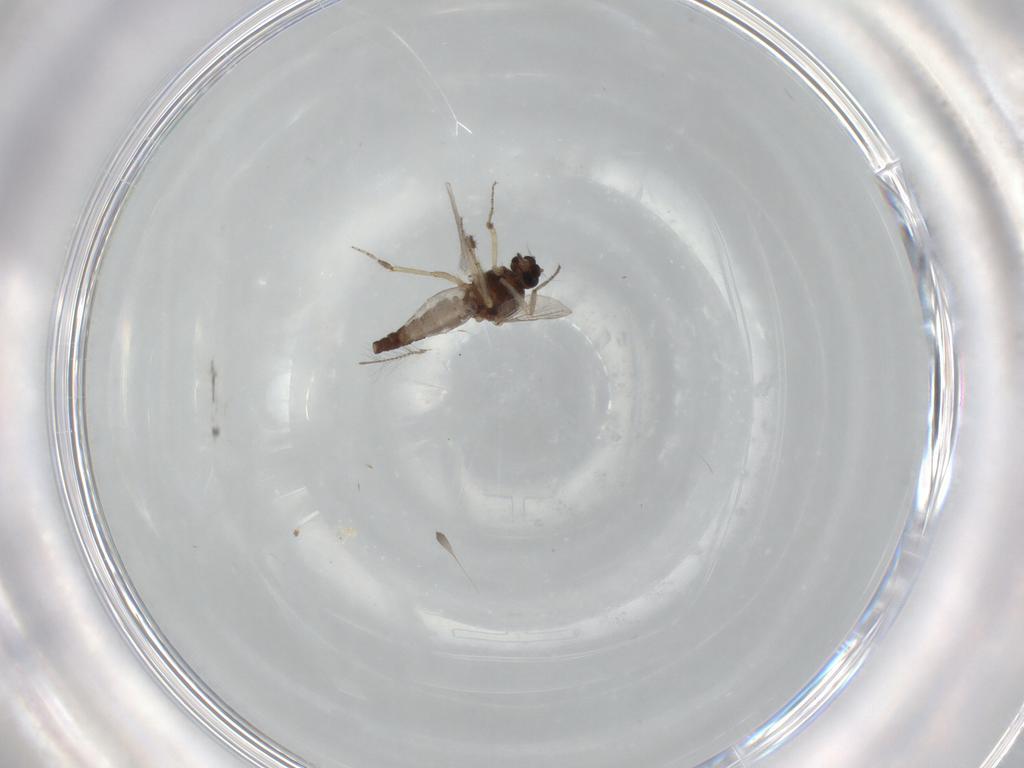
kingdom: Animalia
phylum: Arthropoda
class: Insecta
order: Diptera
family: Ceratopogonidae
